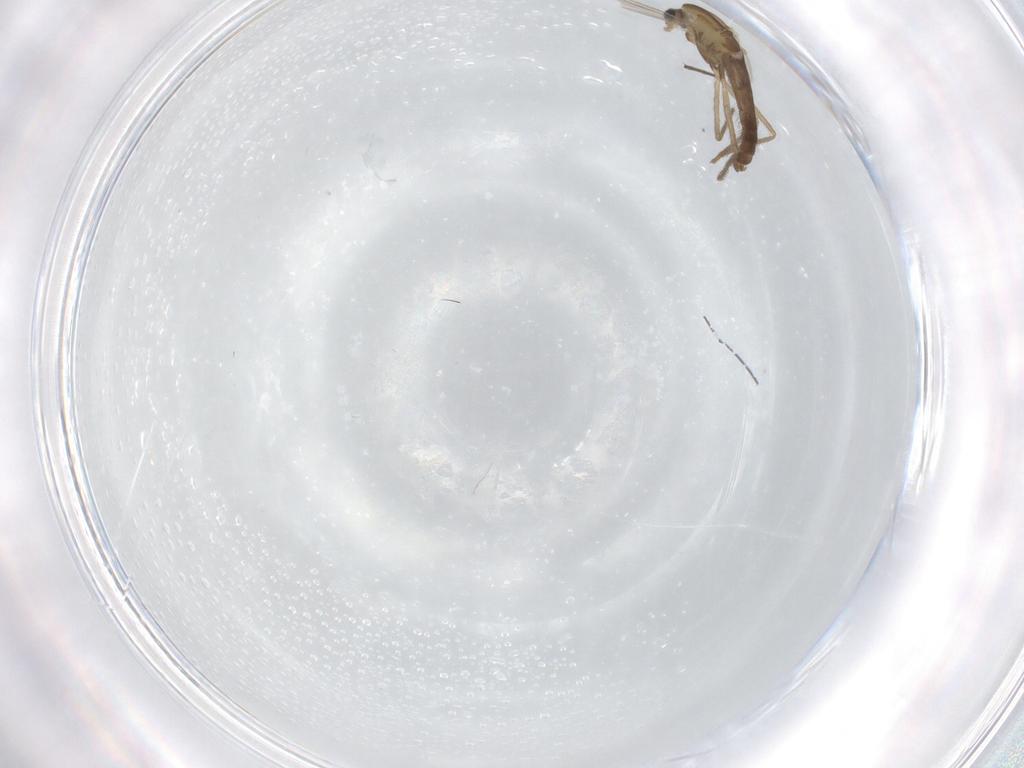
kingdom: Animalia
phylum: Arthropoda
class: Insecta
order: Diptera
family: Chironomidae
